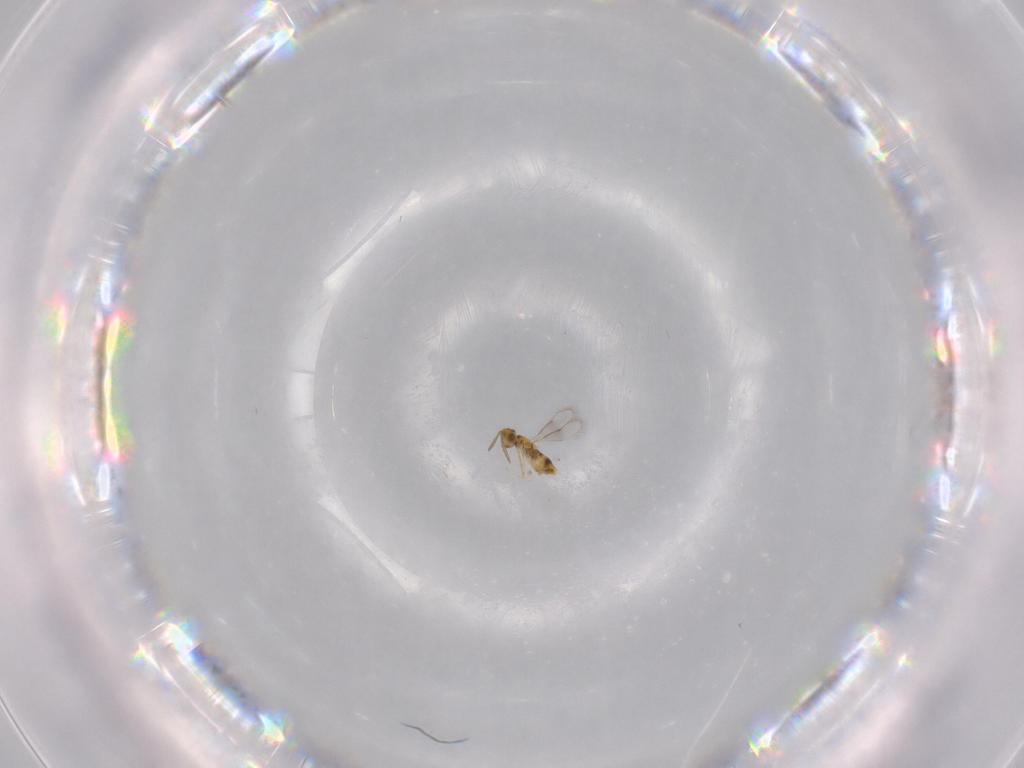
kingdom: Animalia
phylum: Arthropoda
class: Insecta
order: Hymenoptera
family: Aphelinidae
